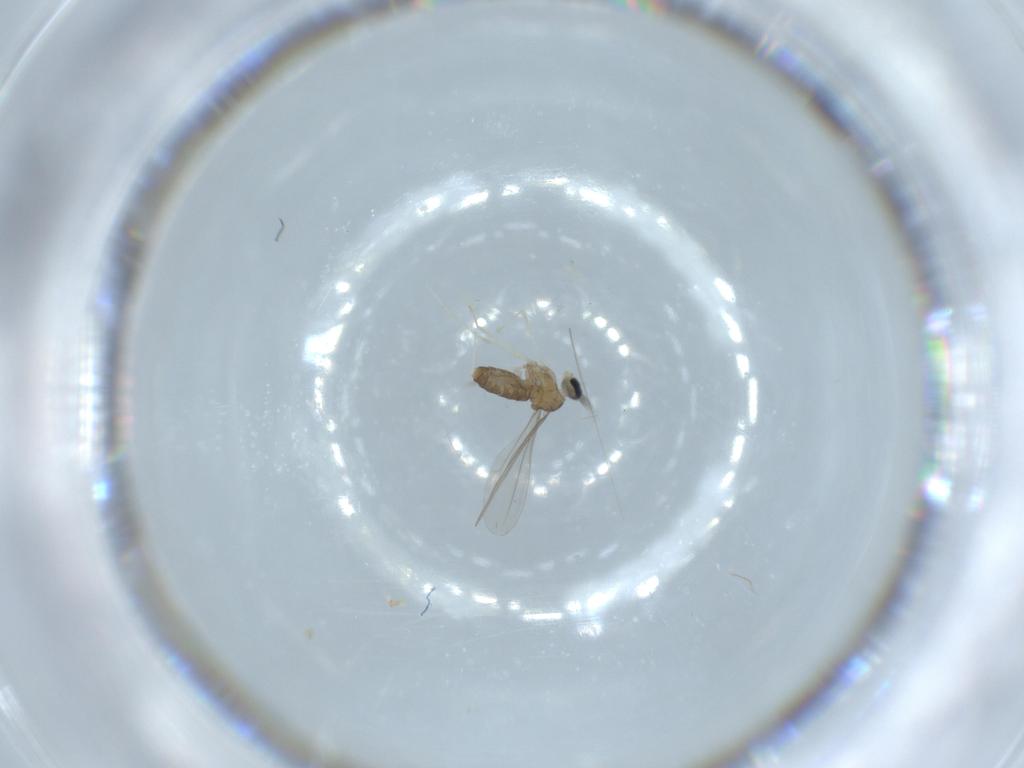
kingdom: Animalia
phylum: Arthropoda
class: Insecta
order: Diptera
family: Cecidomyiidae
